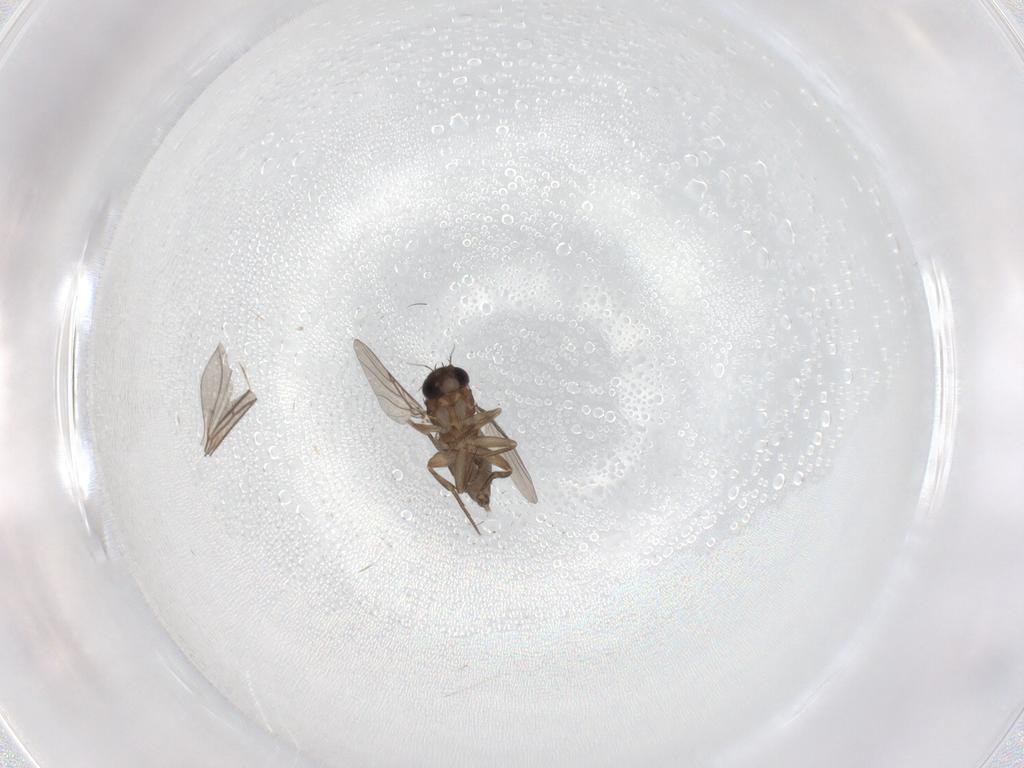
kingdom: Animalia
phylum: Arthropoda
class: Insecta
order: Diptera
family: Phoridae
